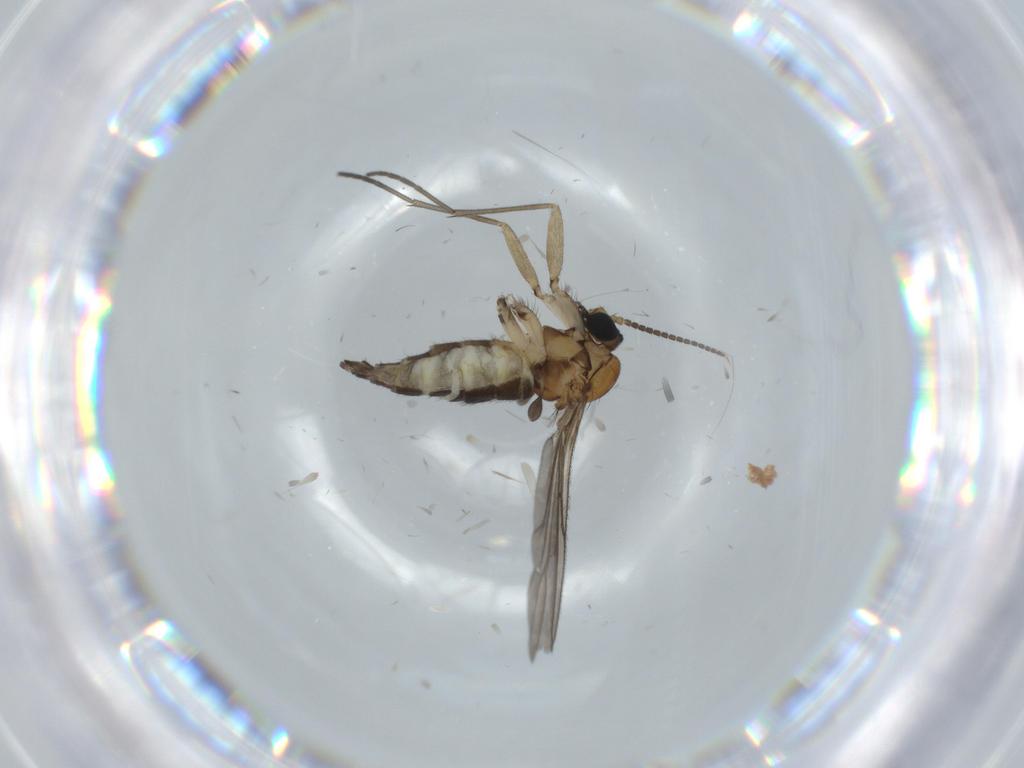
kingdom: Animalia
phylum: Arthropoda
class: Insecta
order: Diptera
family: Sciaridae
